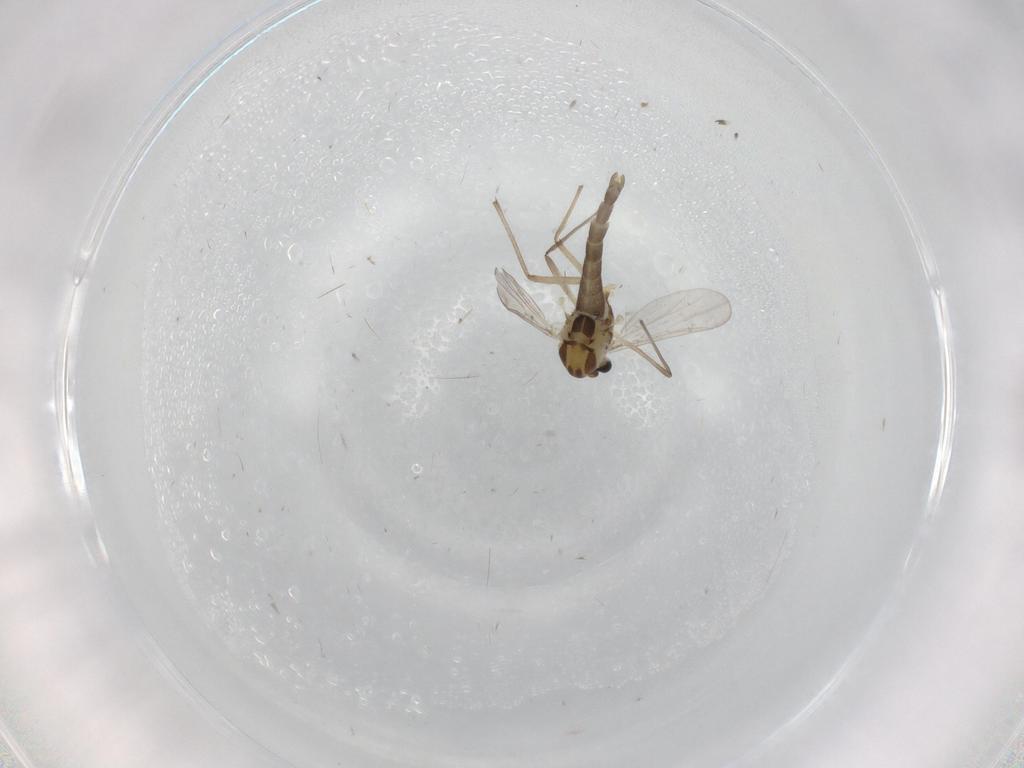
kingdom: Animalia
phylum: Arthropoda
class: Insecta
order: Diptera
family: Chironomidae
